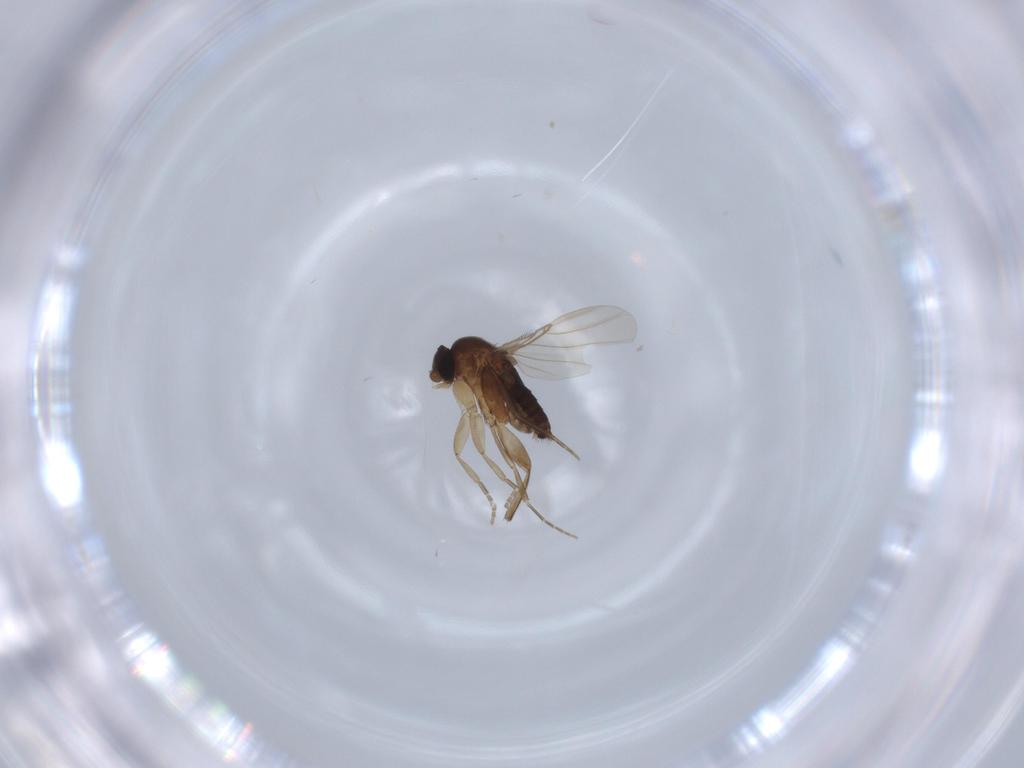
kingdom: Animalia
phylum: Arthropoda
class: Insecta
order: Diptera
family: Phoridae
